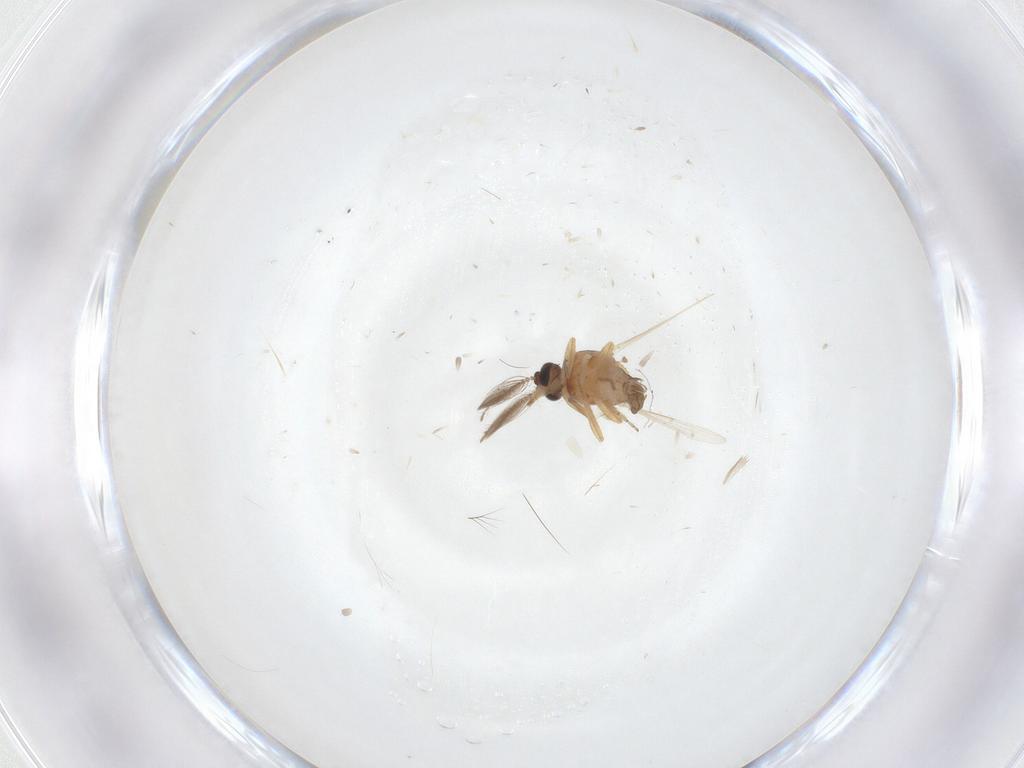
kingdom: Animalia
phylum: Arthropoda
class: Insecta
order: Diptera
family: Ceratopogonidae
